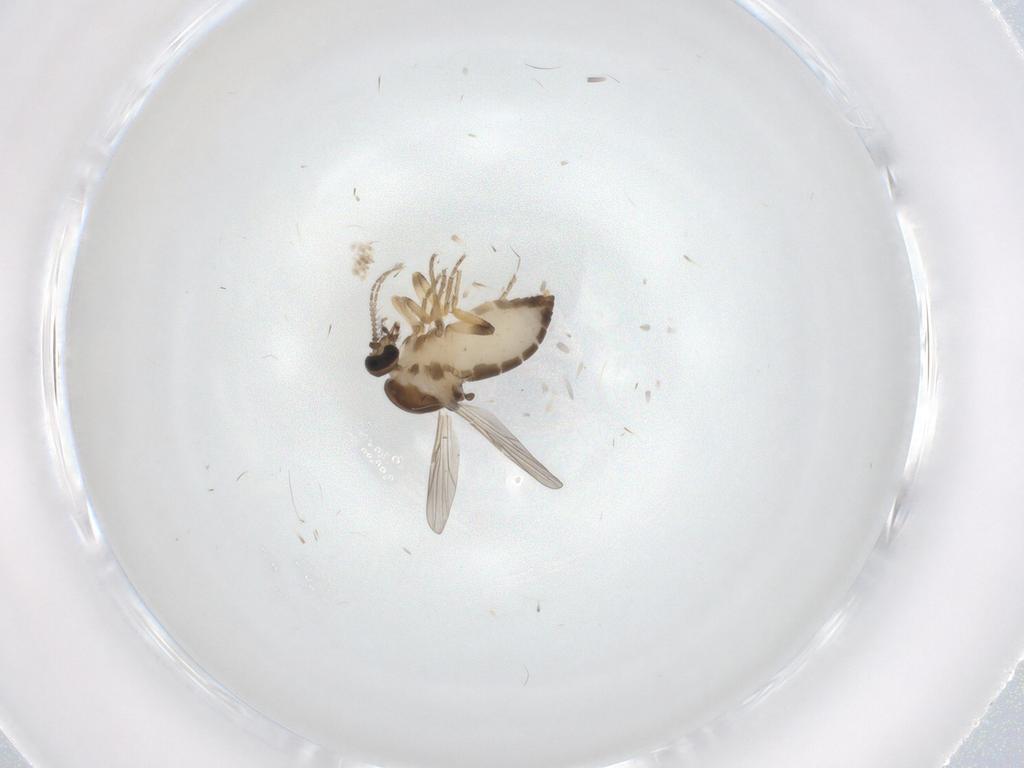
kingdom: Animalia
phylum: Arthropoda
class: Insecta
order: Diptera
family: Ceratopogonidae
